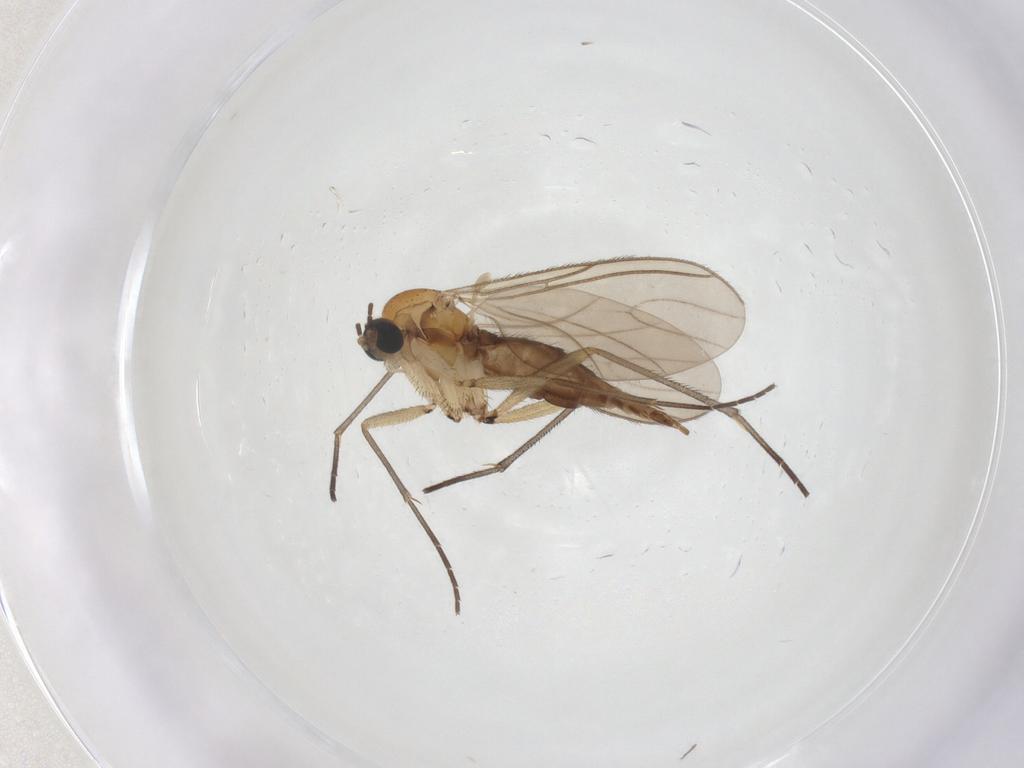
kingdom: Animalia
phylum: Arthropoda
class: Insecta
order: Diptera
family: Sciaridae
